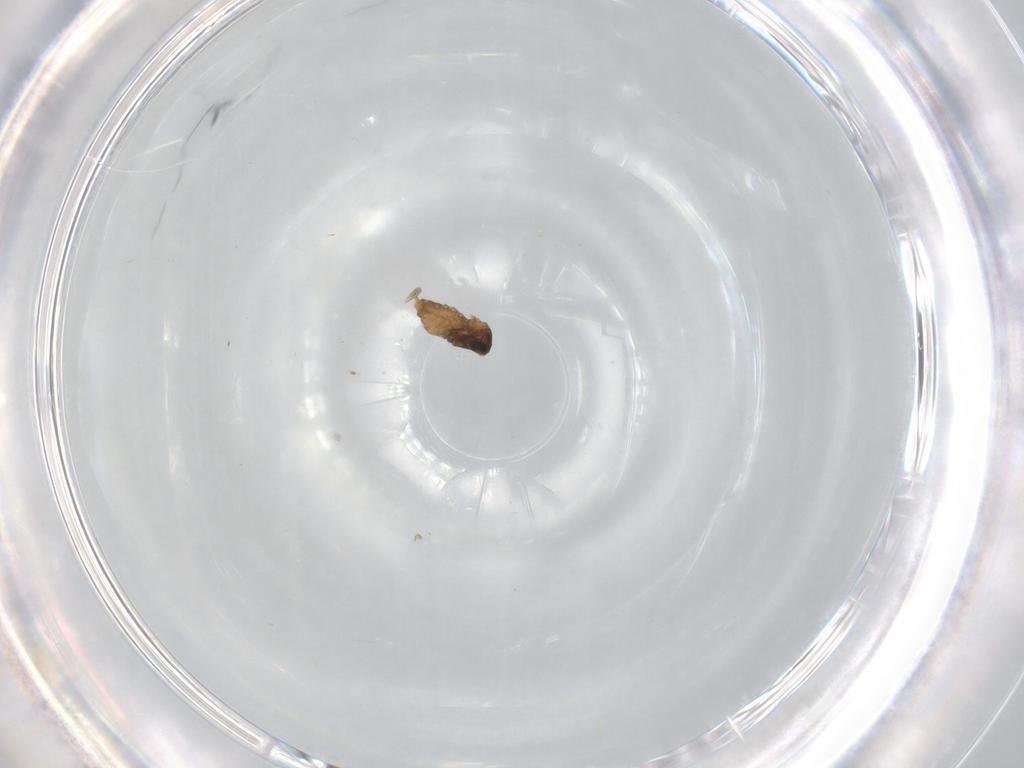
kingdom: Animalia
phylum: Arthropoda
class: Insecta
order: Diptera
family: Cecidomyiidae
